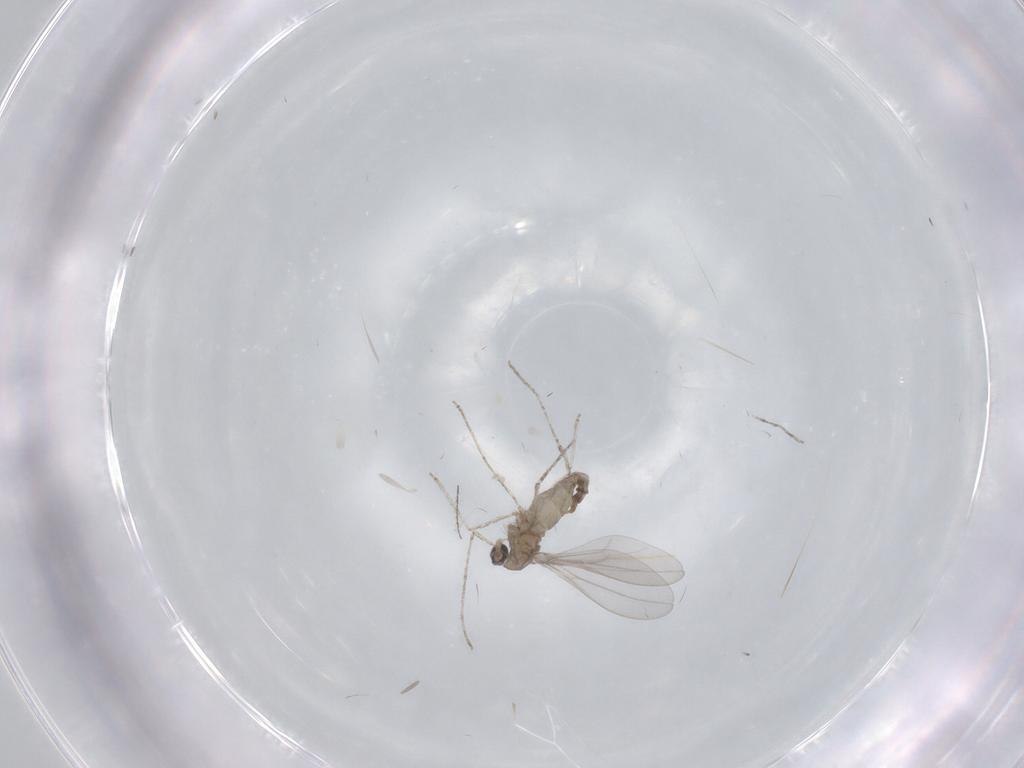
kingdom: Animalia
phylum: Arthropoda
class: Insecta
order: Diptera
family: Cecidomyiidae
